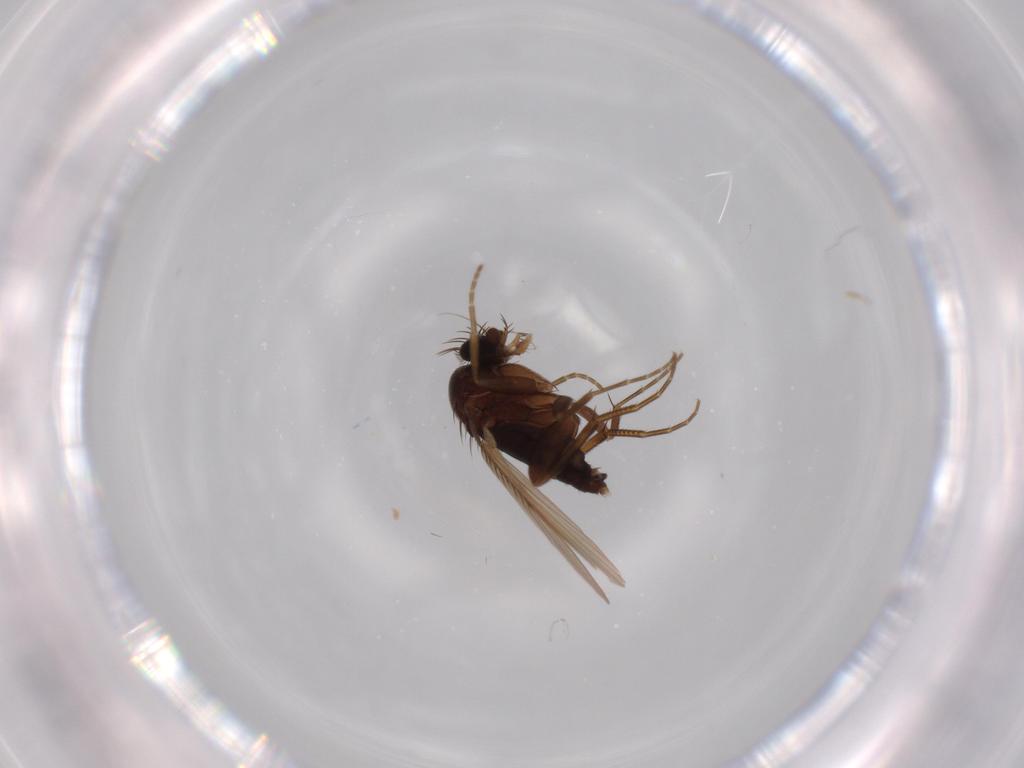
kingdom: Animalia
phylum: Arthropoda
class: Insecta
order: Diptera
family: Phoridae
